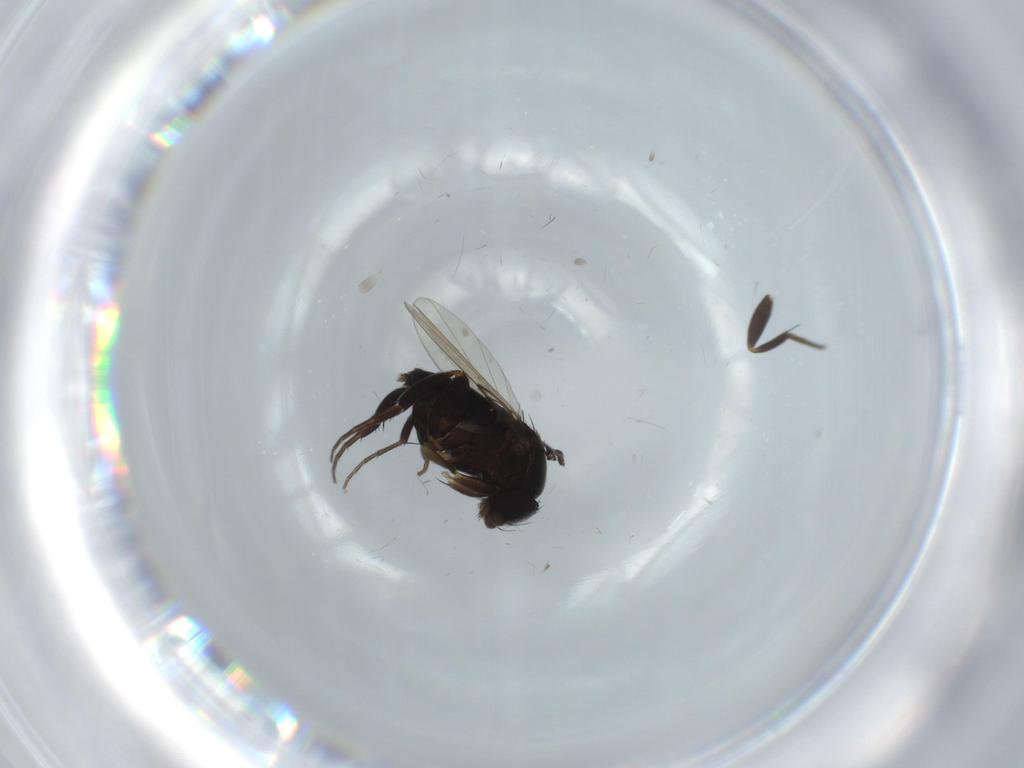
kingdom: Animalia
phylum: Arthropoda
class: Insecta
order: Diptera
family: Phoridae
